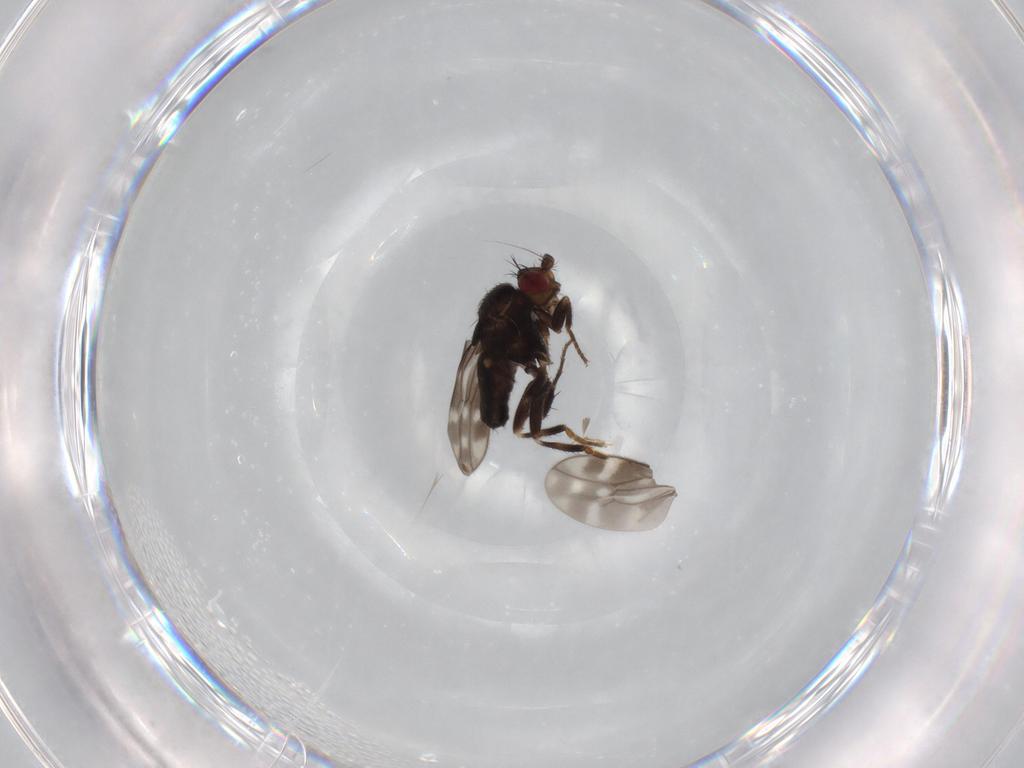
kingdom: Animalia
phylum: Arthropoda
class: Insecta
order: Diptera
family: Sphaeroceridae
